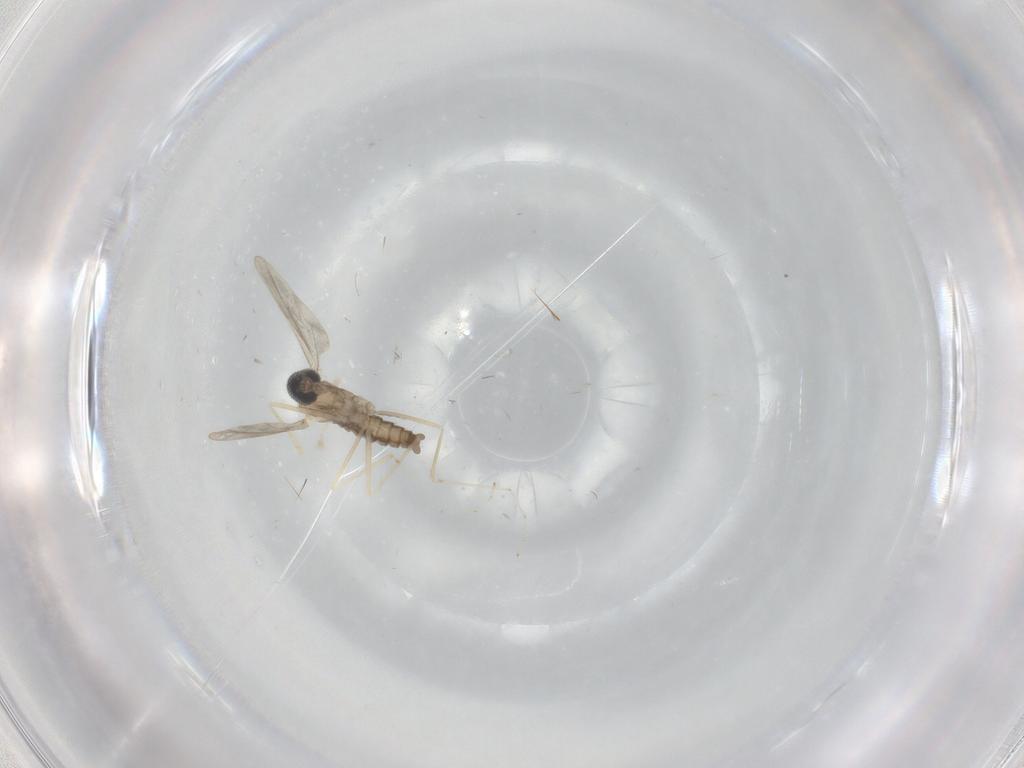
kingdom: Animalia
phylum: Arthropoda
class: Insecta
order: Diptera
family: Cecidomyiidae
